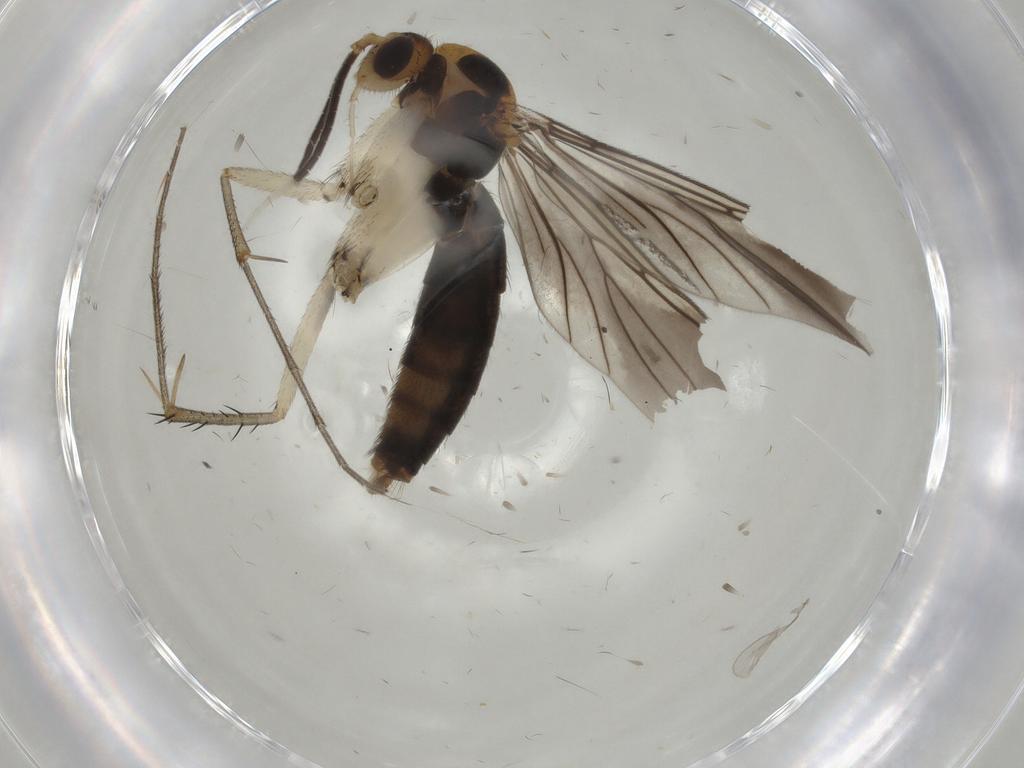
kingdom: Animalia
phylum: Arthropoda
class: Insecta
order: Diptera
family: Mycetophilidae
